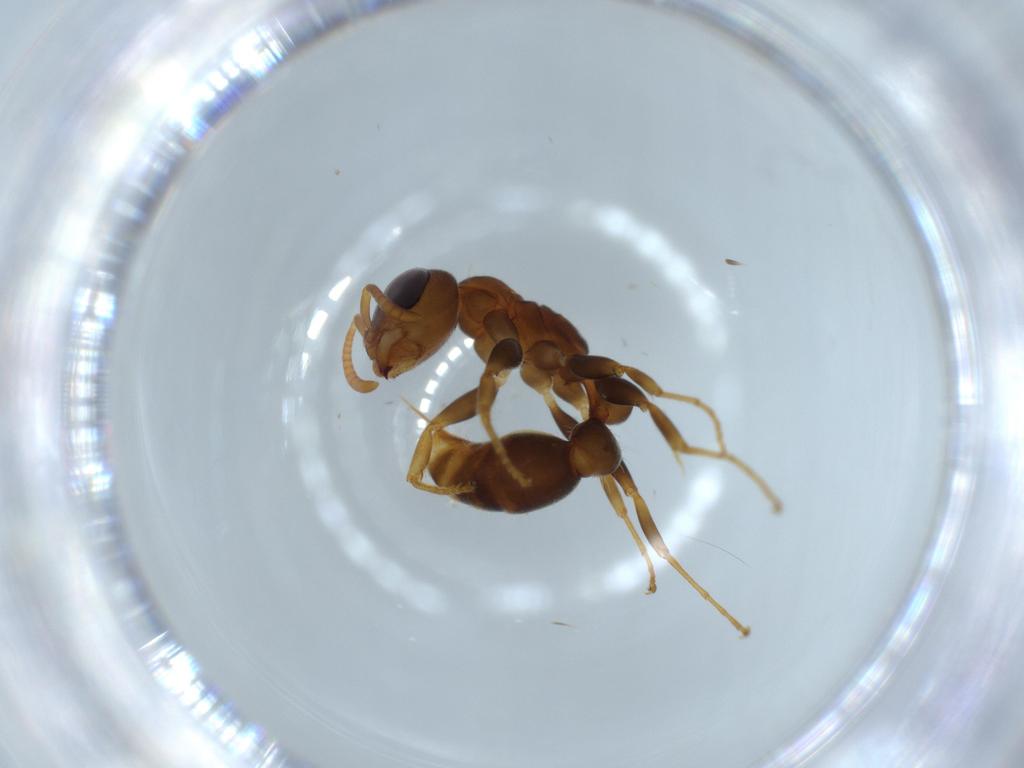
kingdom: Animalia
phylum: Arthropoda
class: Insecta
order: Hymenoptera
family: Formicidae
